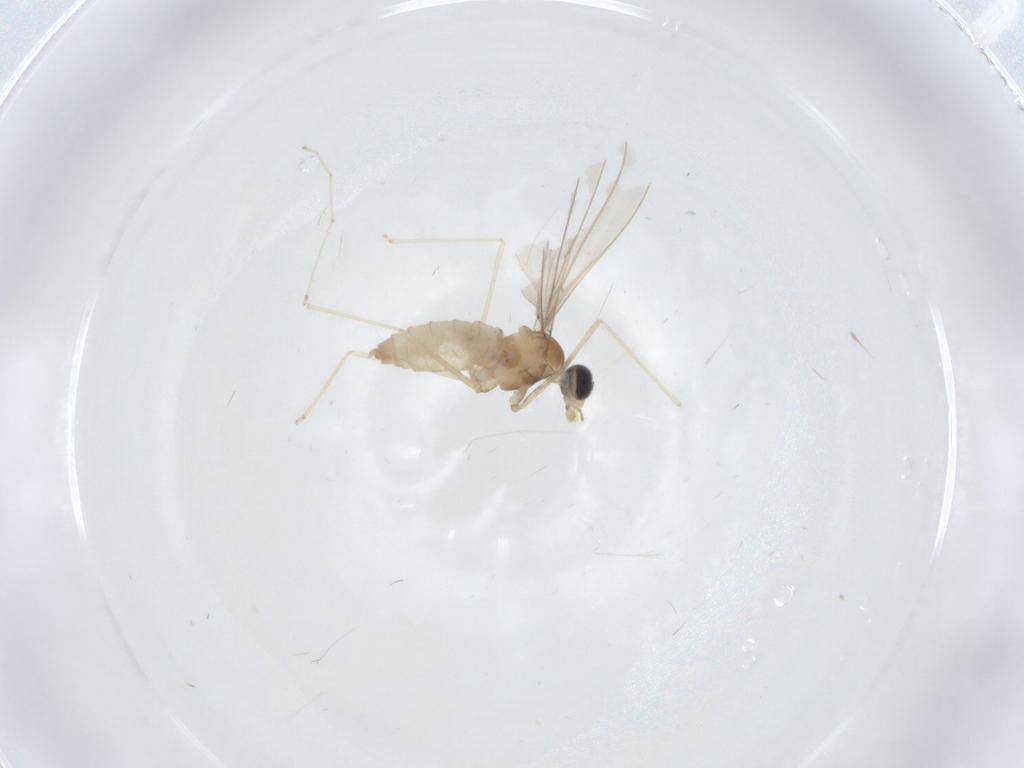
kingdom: Animalia
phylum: Arthropoda
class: Insecta
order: Diptera
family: Cecidomyiidae
